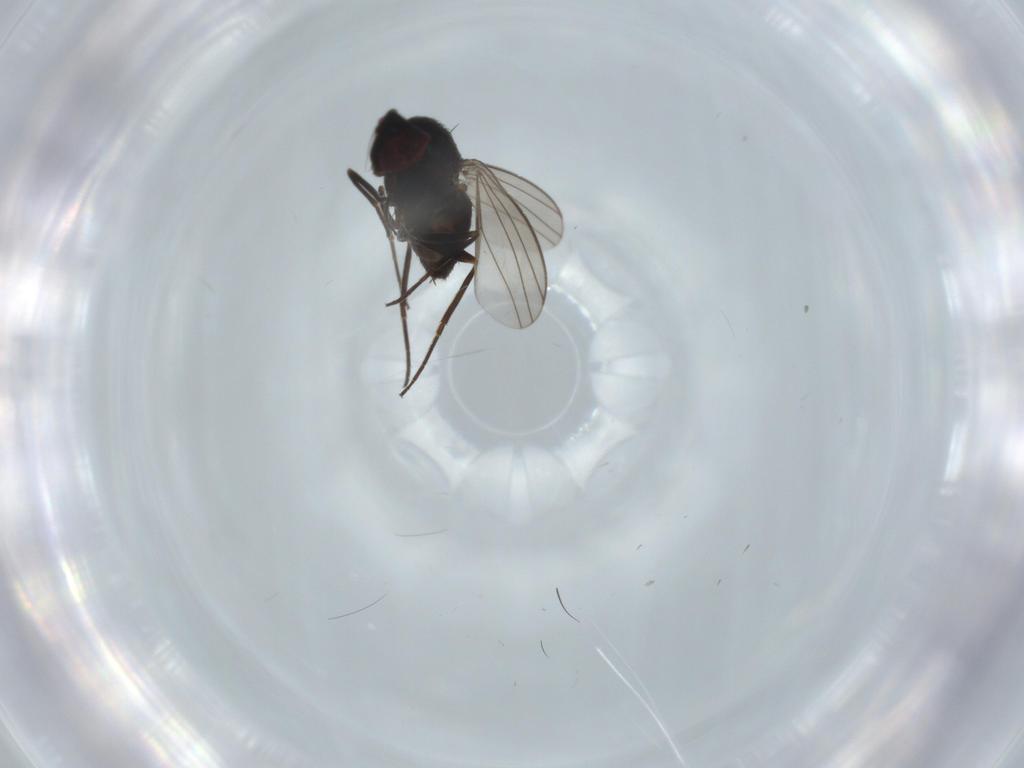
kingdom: Animalia
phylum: Arthropoda
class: Insecta
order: Diptera
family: Dolichopodidae
